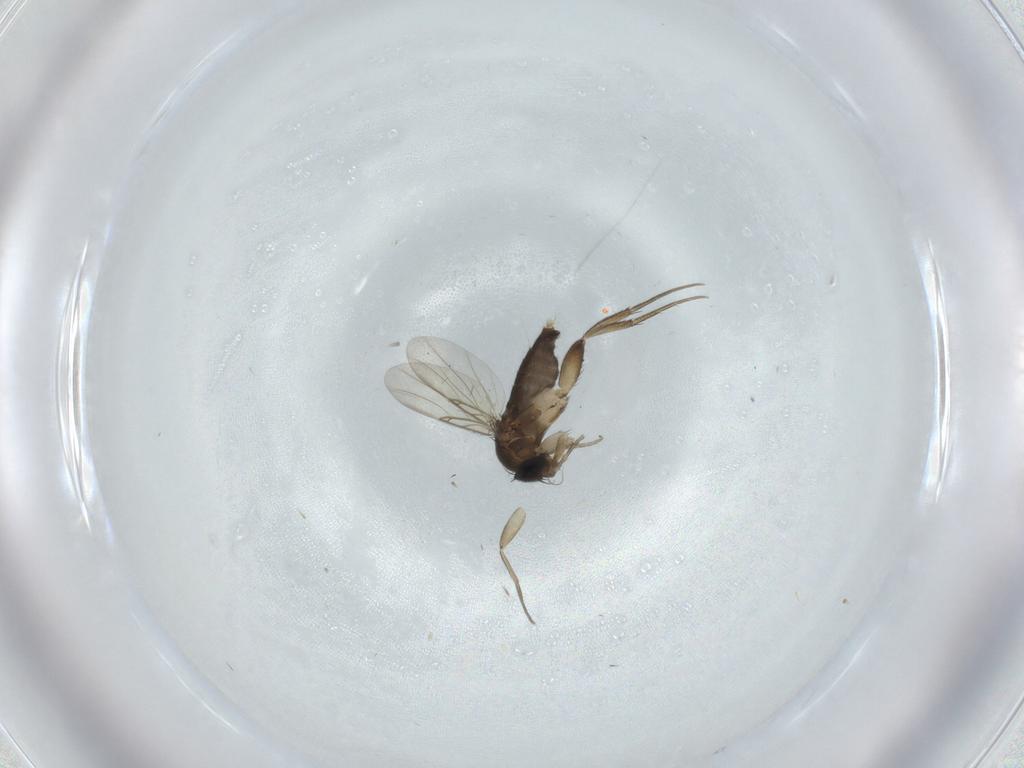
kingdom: Animalia
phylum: Arthropoda
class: Insecta
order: Diptera
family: Phoridae
